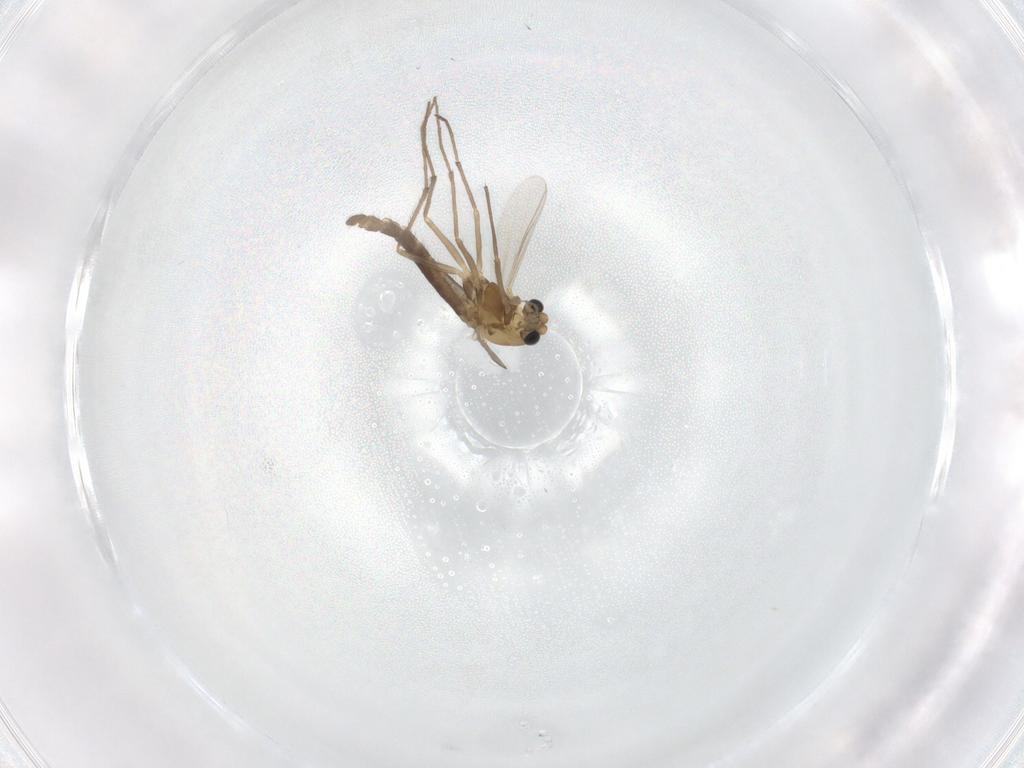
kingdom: Animalia
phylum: Arthropoda
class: Insecta
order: Diptera
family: Chironomidae
